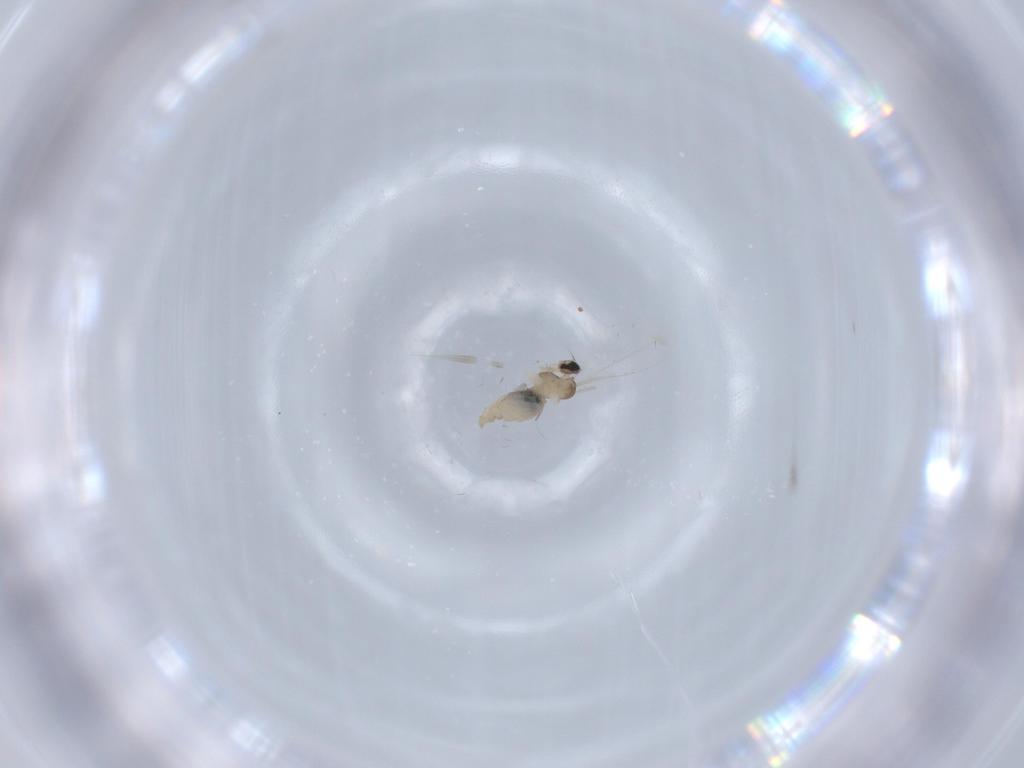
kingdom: Animalia
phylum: Arthropoda
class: Insecta
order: Diptera
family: Cecidomyiidae
